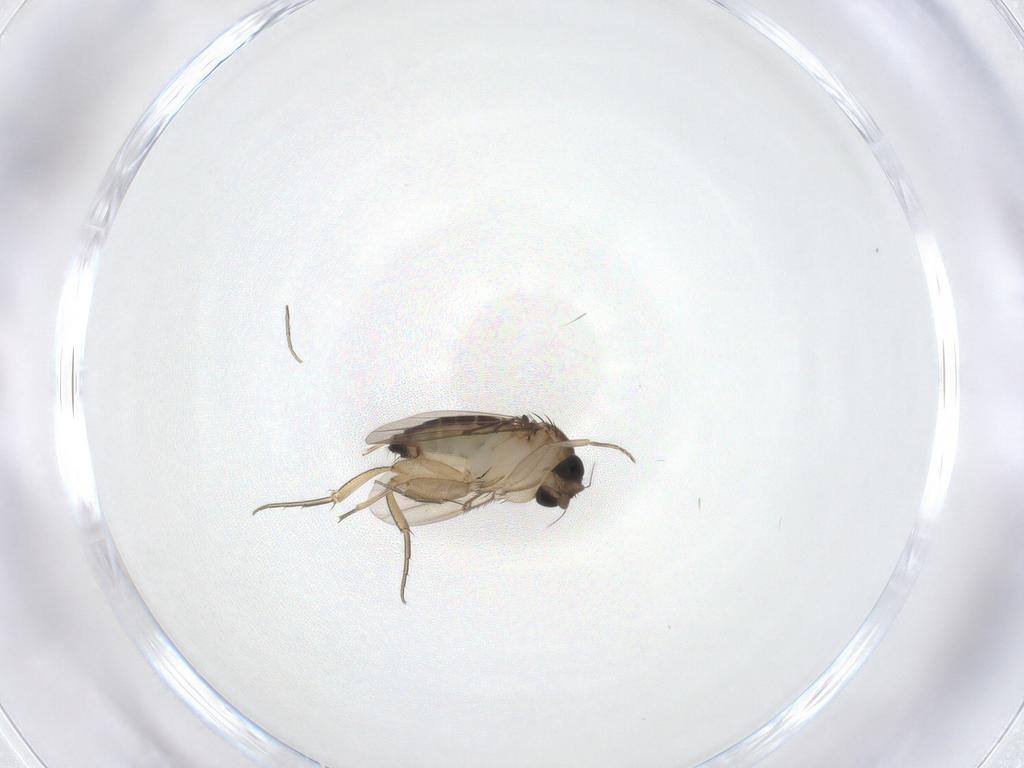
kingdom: Animalia
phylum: Arthropoda
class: Insecta
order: Diptera
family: Phoridae
